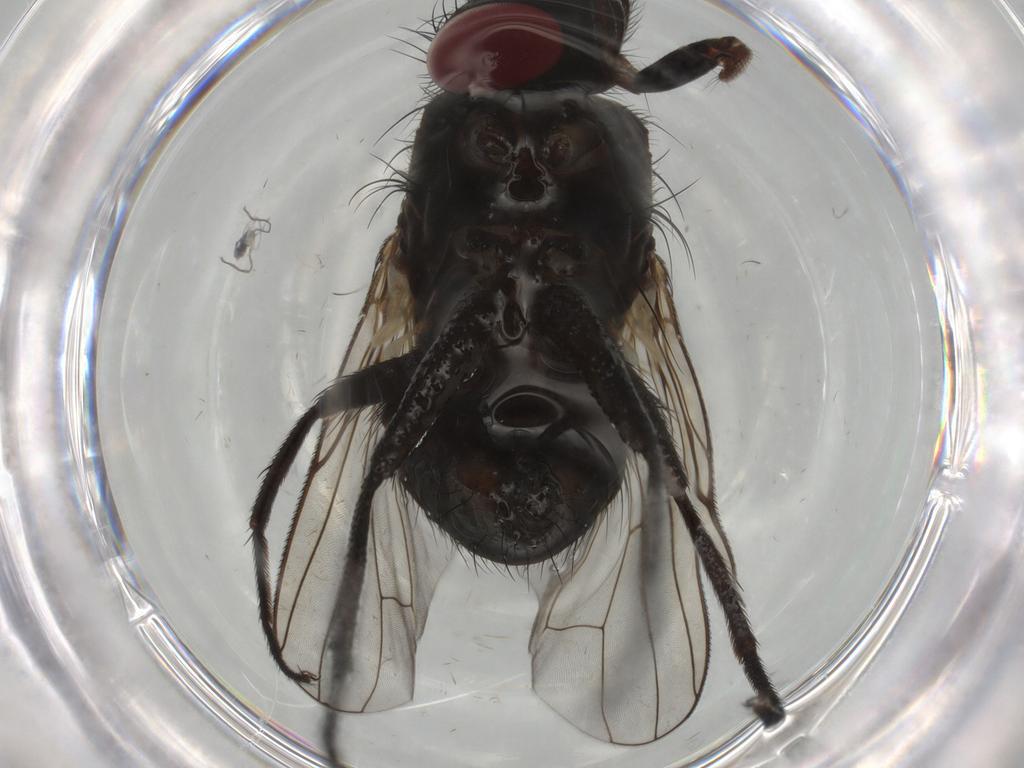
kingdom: Animalia
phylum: Arthropoda
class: Insecta
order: Diptera
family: Muscidae
